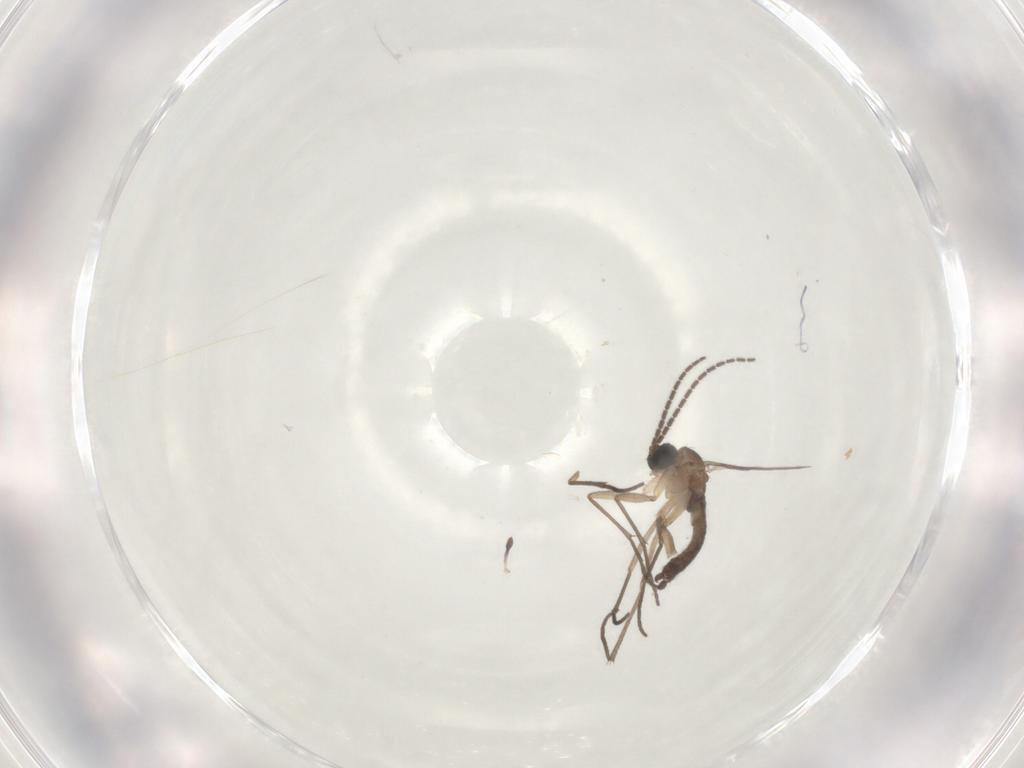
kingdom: Animalia
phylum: Arthropoda
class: Insecta
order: Diptera
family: Sciaridae
